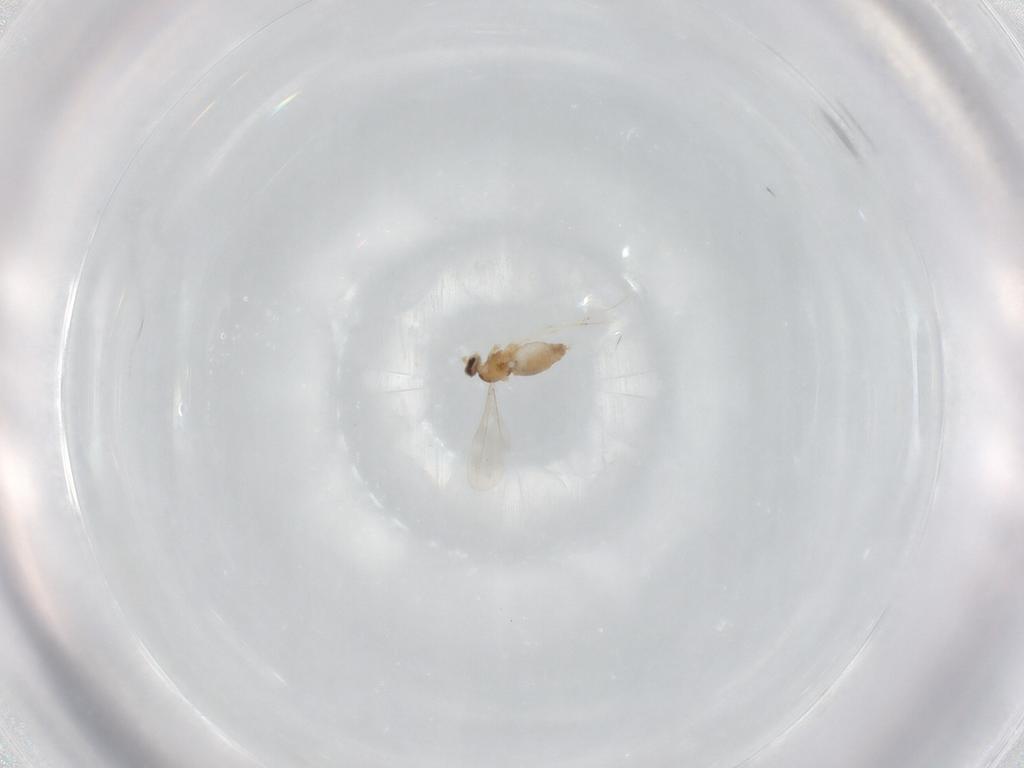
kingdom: Animalia
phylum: Arthropoda
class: Insecta
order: Diptera
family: Cecidomyiidae
